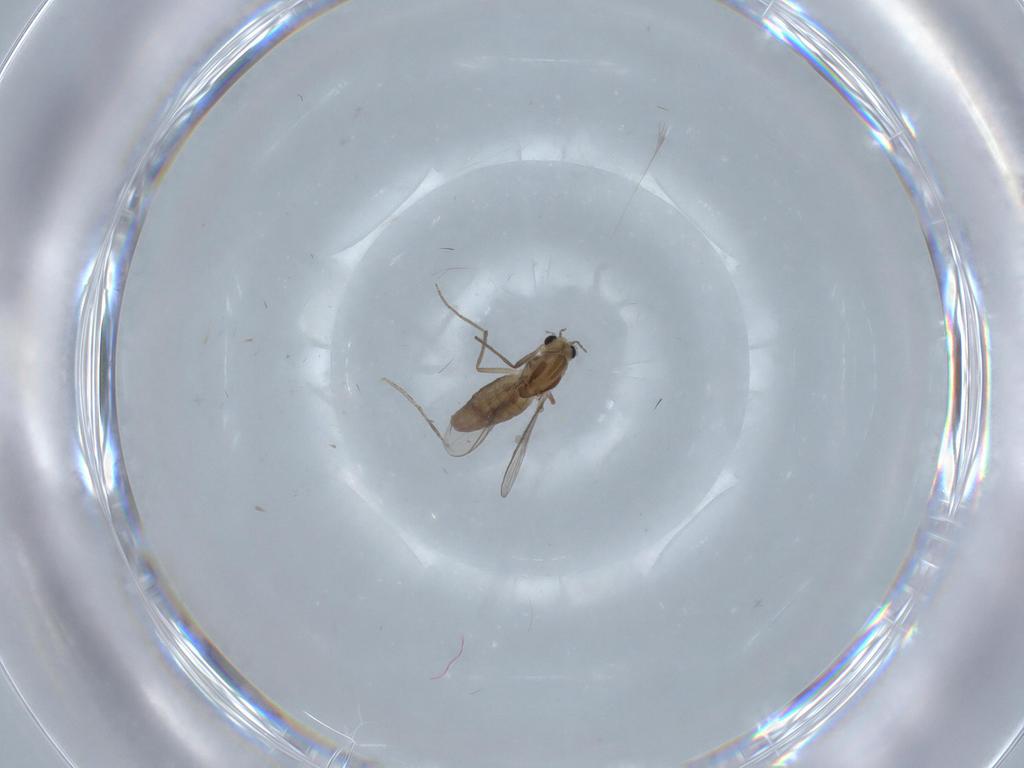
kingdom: Animalia
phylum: Arthropoda
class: Insecta
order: Diptera
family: Chironomidae
